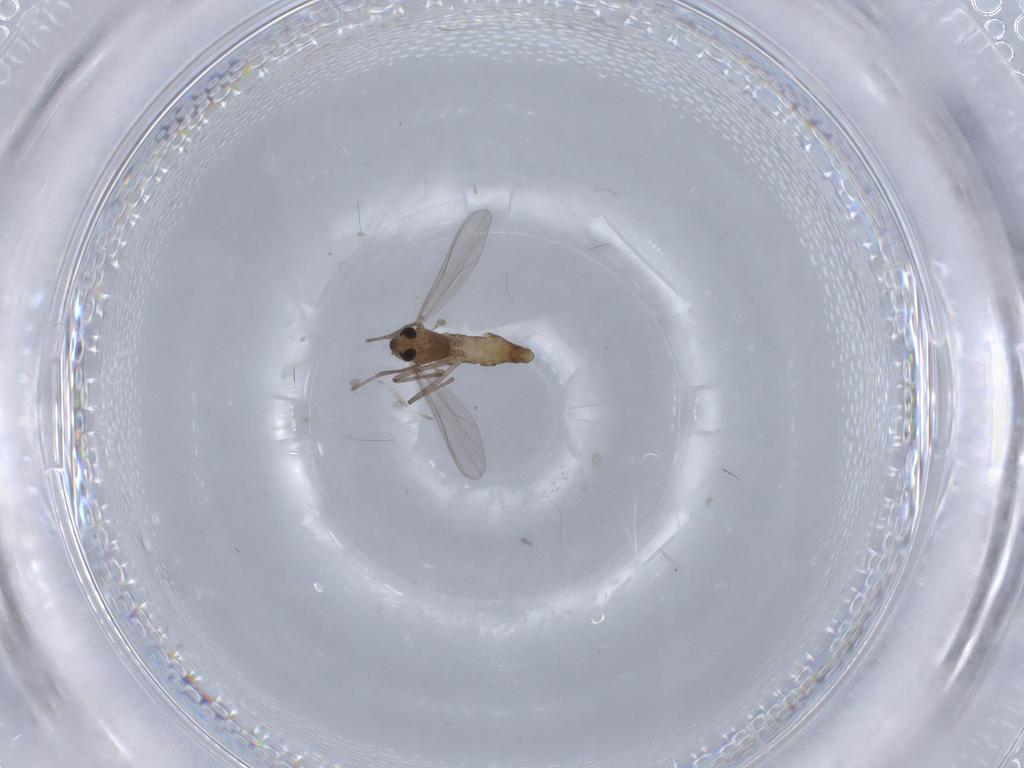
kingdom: Animalia
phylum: Arthropoda
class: Insecta
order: Diptera
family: Chironomidae
